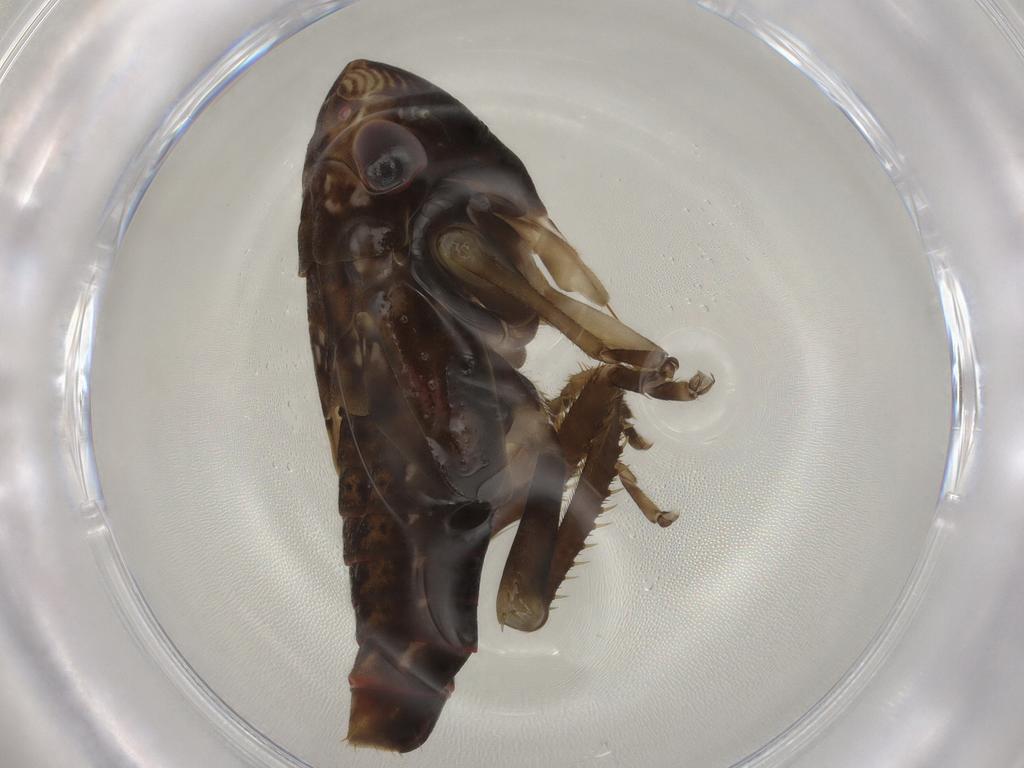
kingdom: Animalia
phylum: Arthropoda
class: Insecta
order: Hemiptera
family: Cicadellidae
